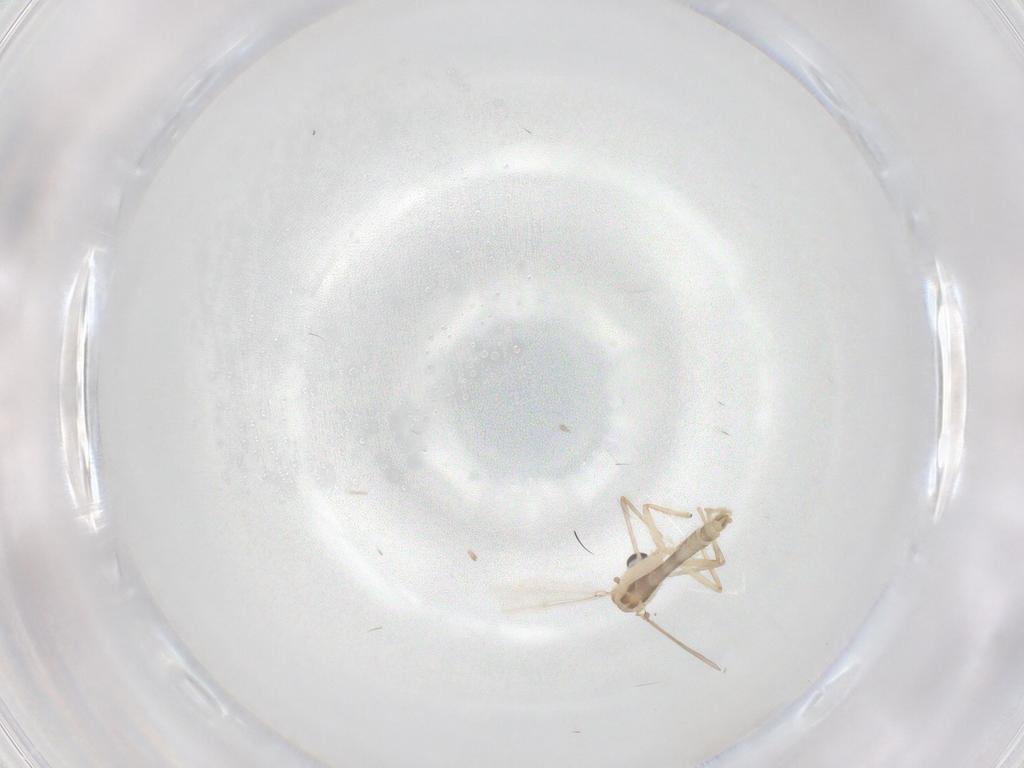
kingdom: Animalia
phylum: Arthropoda
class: Insecta
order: Diptera
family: Chironomidae
